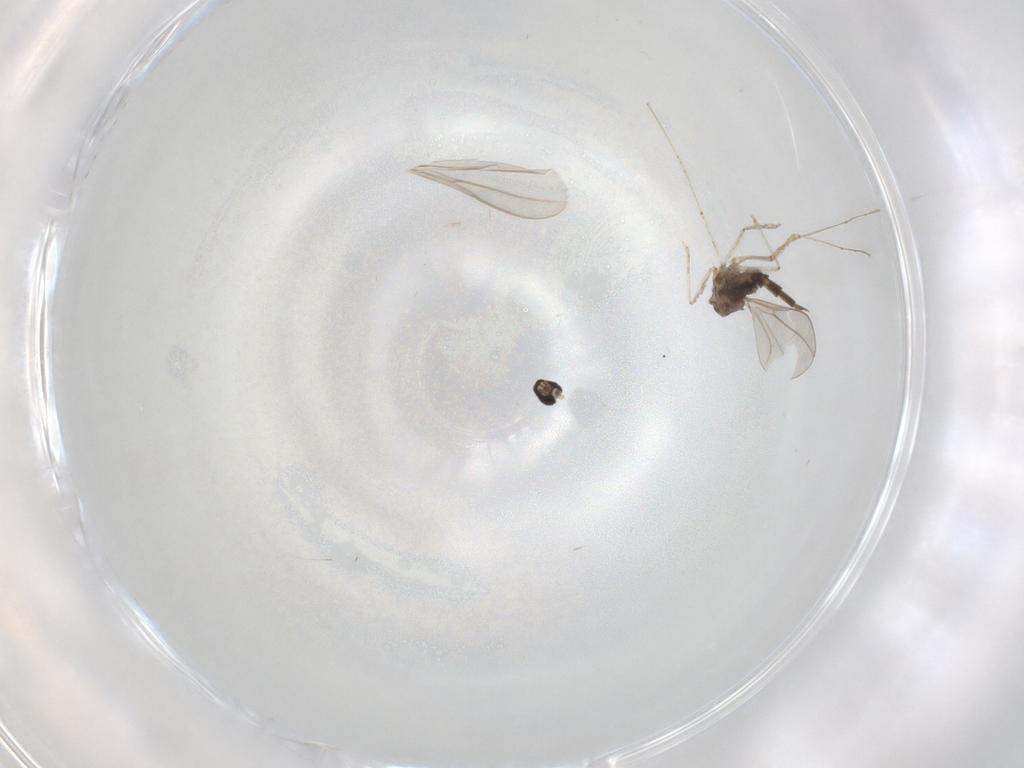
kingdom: Animalia
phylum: Arthropoda
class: Insecta
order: Diptera
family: Cecidomyiidae
